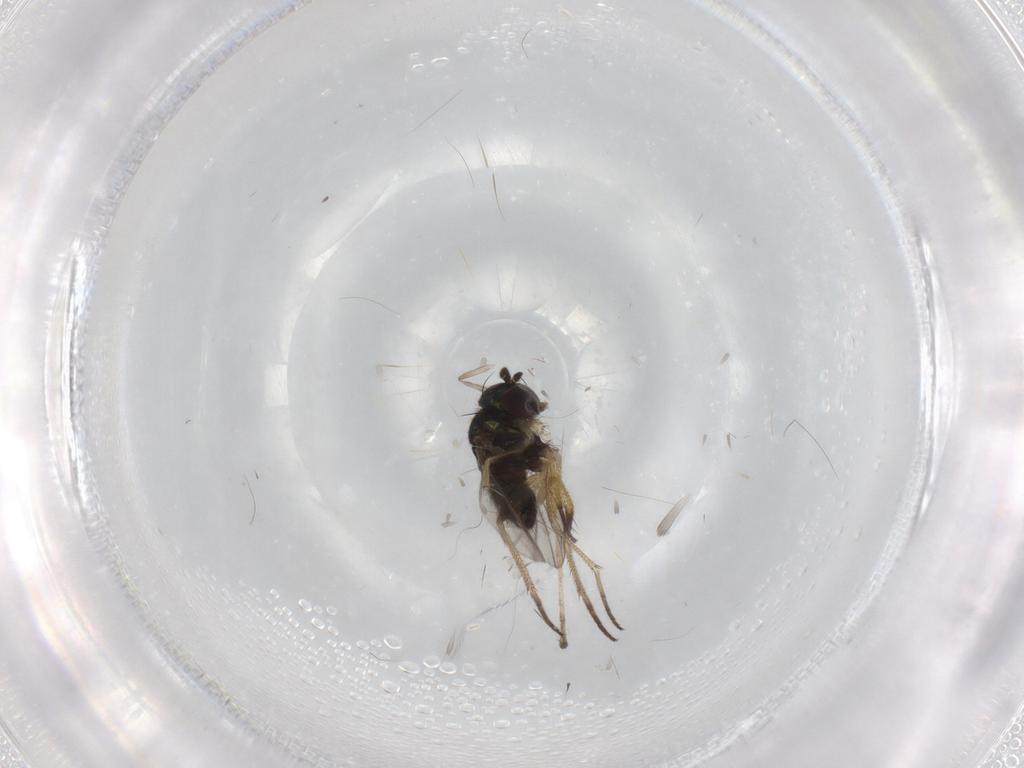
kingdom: Animalia
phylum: Arthropoda
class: Insecta
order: Diptera
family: Psychodidae
